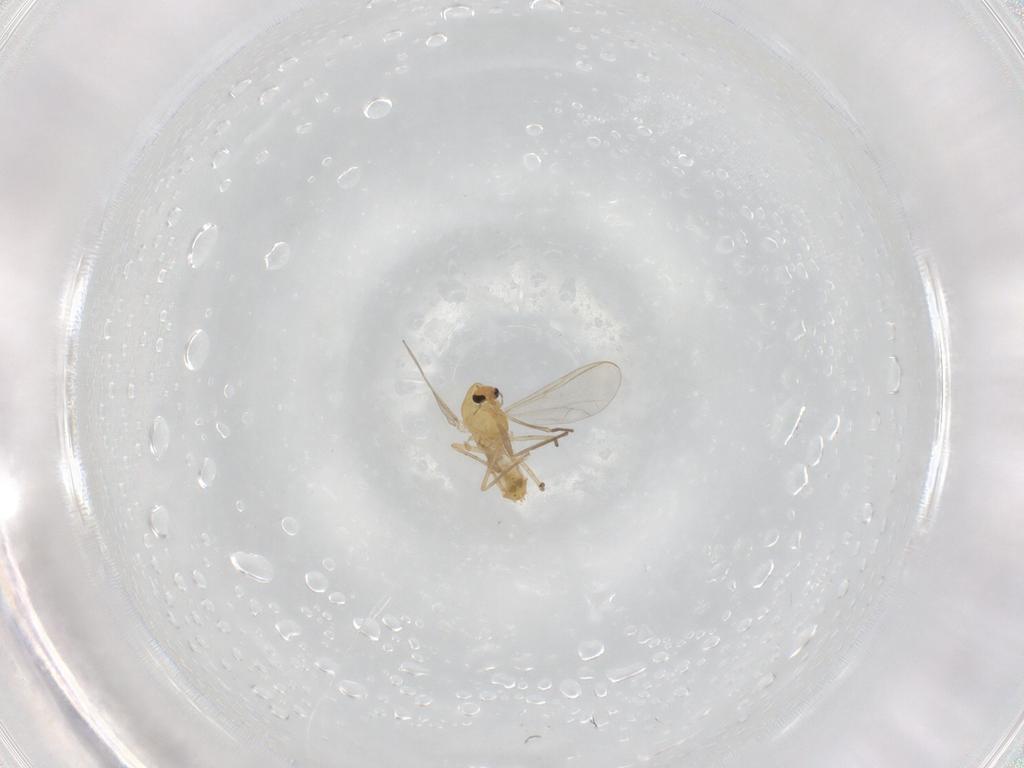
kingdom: Animalia
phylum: Arthropoda
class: Insecta
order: Diptera
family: Chironomidae
